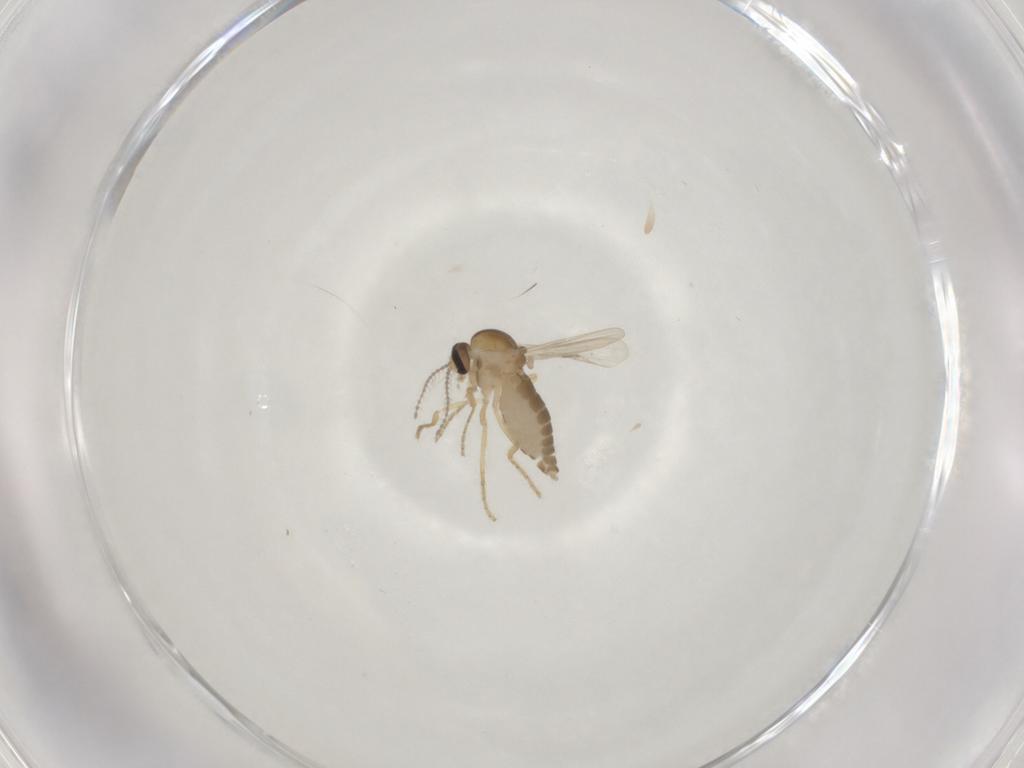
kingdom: Animalia
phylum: Arthropoda
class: Insecta
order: Diptera
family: Ceratopogonidae
